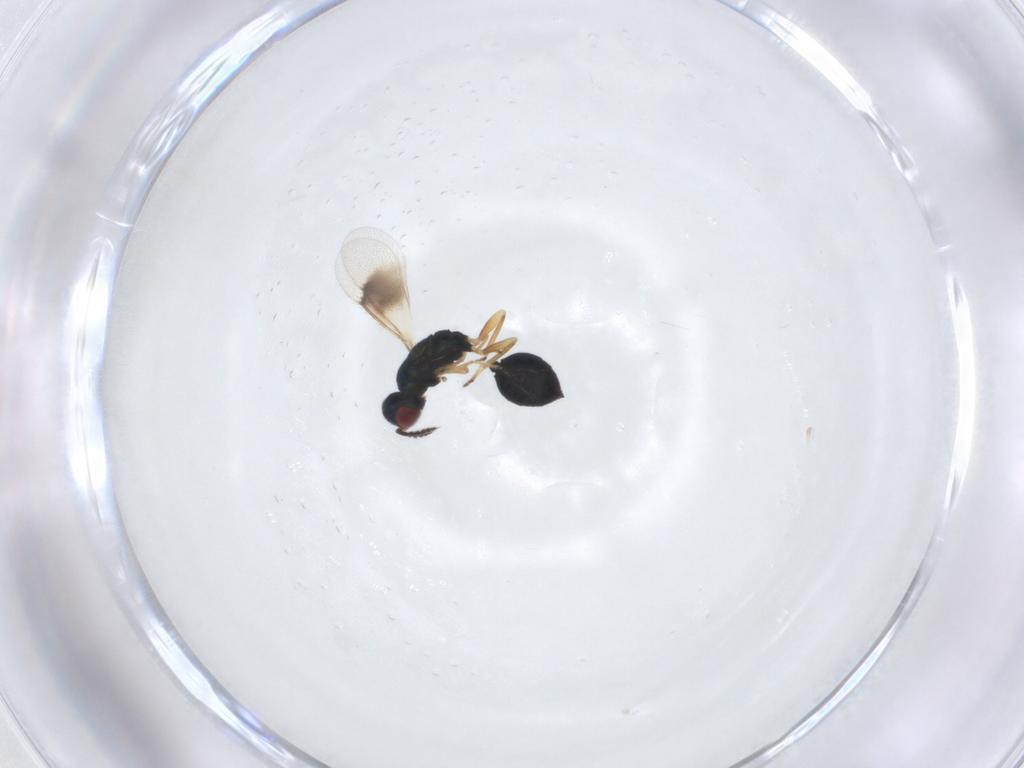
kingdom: Animalia
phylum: Arthropoda
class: Insecta
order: Hymenoptera
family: Eulophidae
